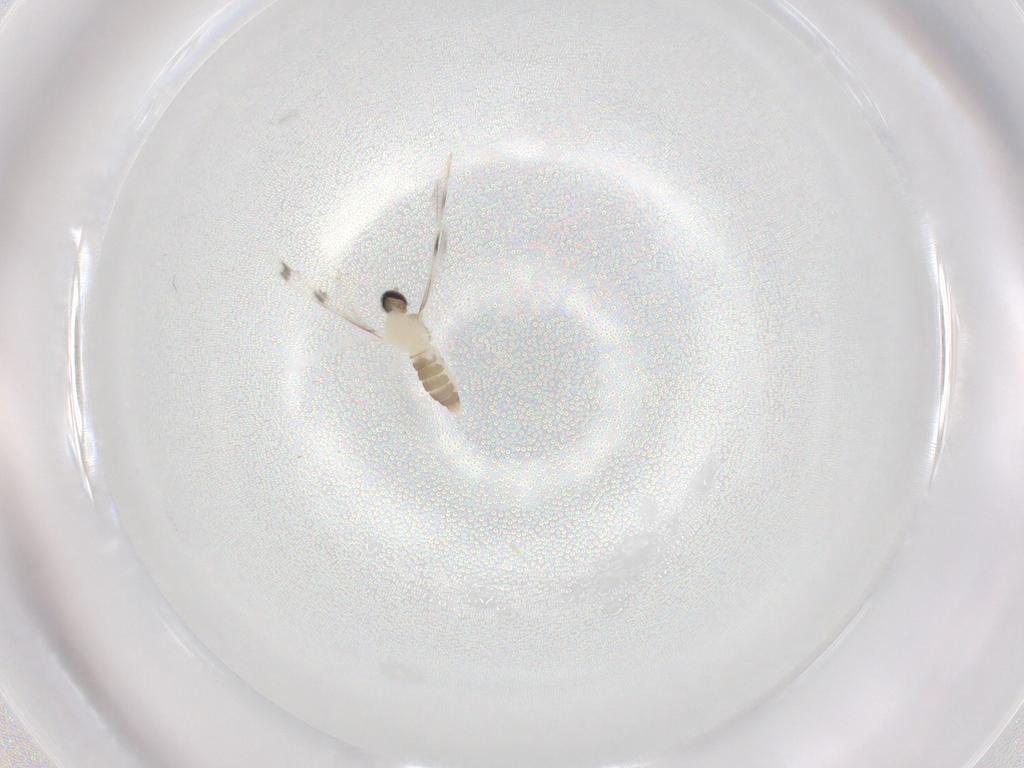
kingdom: Animalia
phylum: Arthropoda
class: Insecta
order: Diptera
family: Cecidomyiidae
